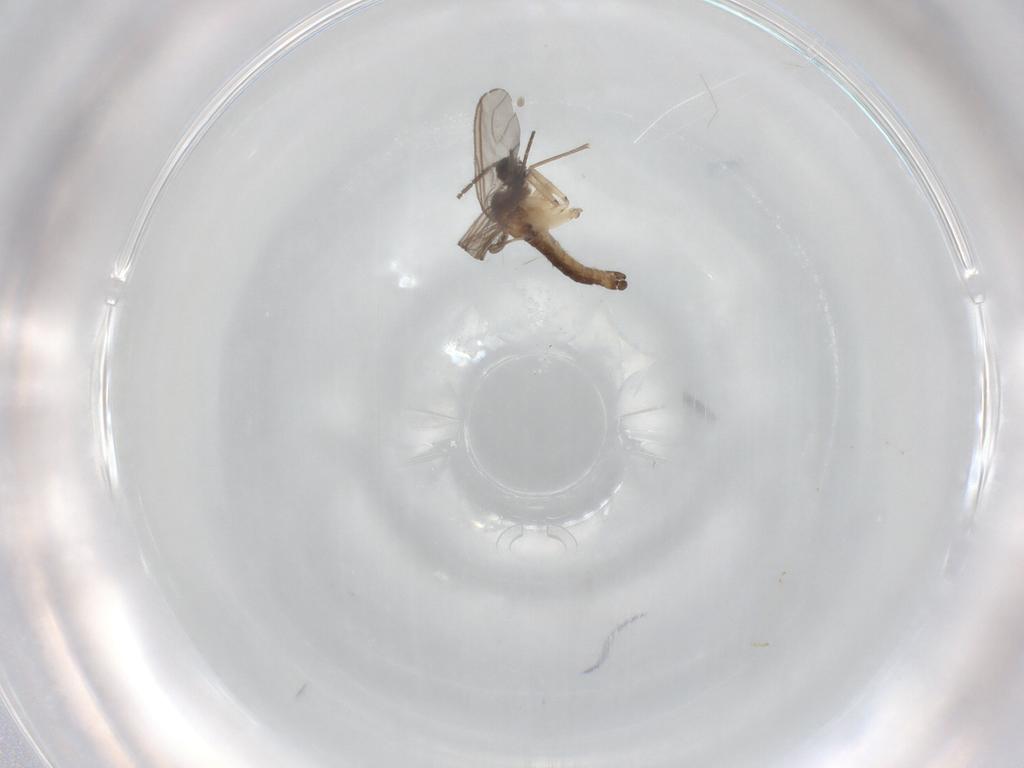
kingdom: Animalia
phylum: Arthropoda
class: Insecta
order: Diptera
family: Cecidomyiidae
